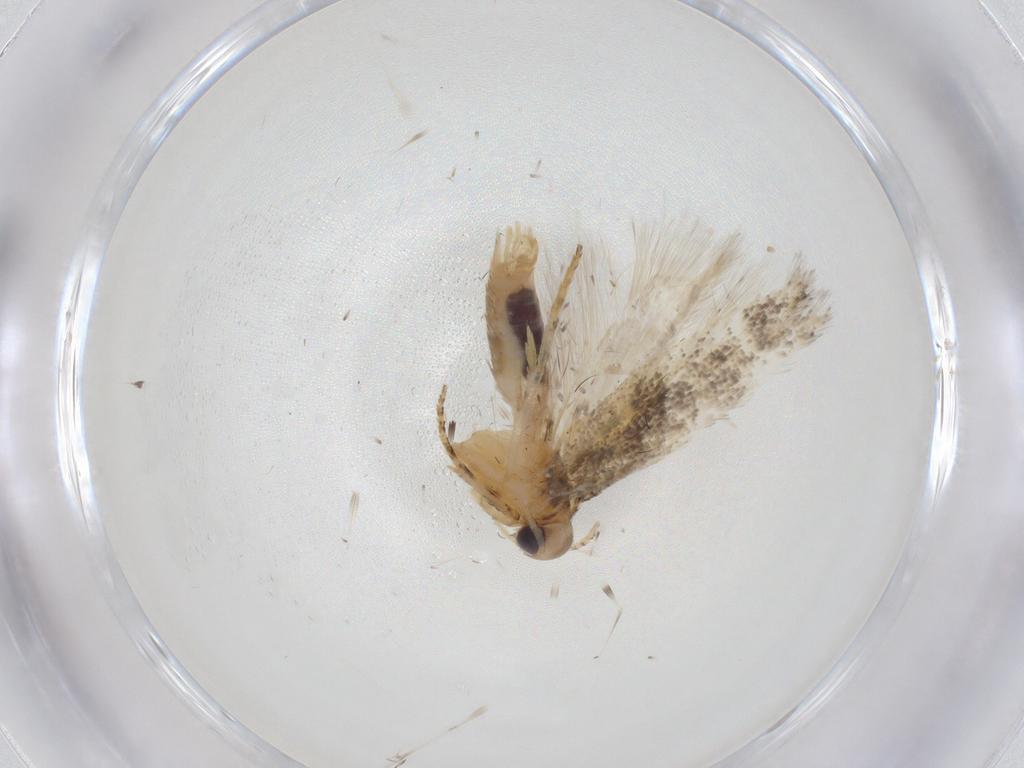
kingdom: Animalia
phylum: Arthropoda
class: Insecta
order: Lepidoptera
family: Gelechiidae
